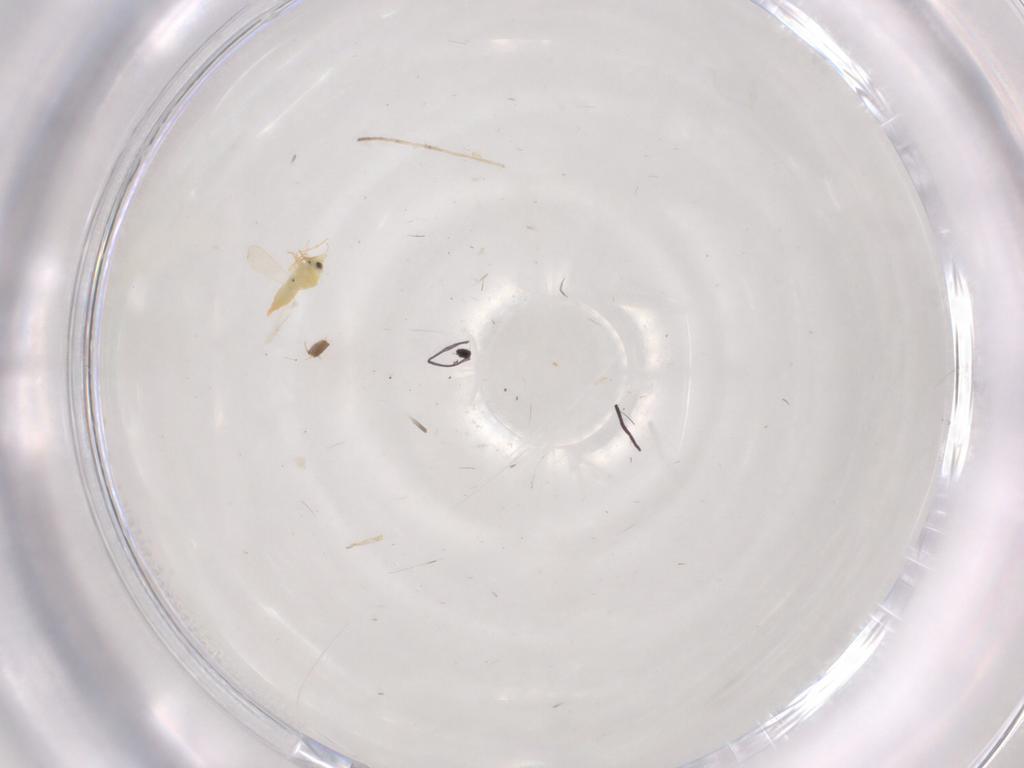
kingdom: Animalia
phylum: Arthropoda
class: Insecta
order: Hemiptera
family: Rhyparochromidae
